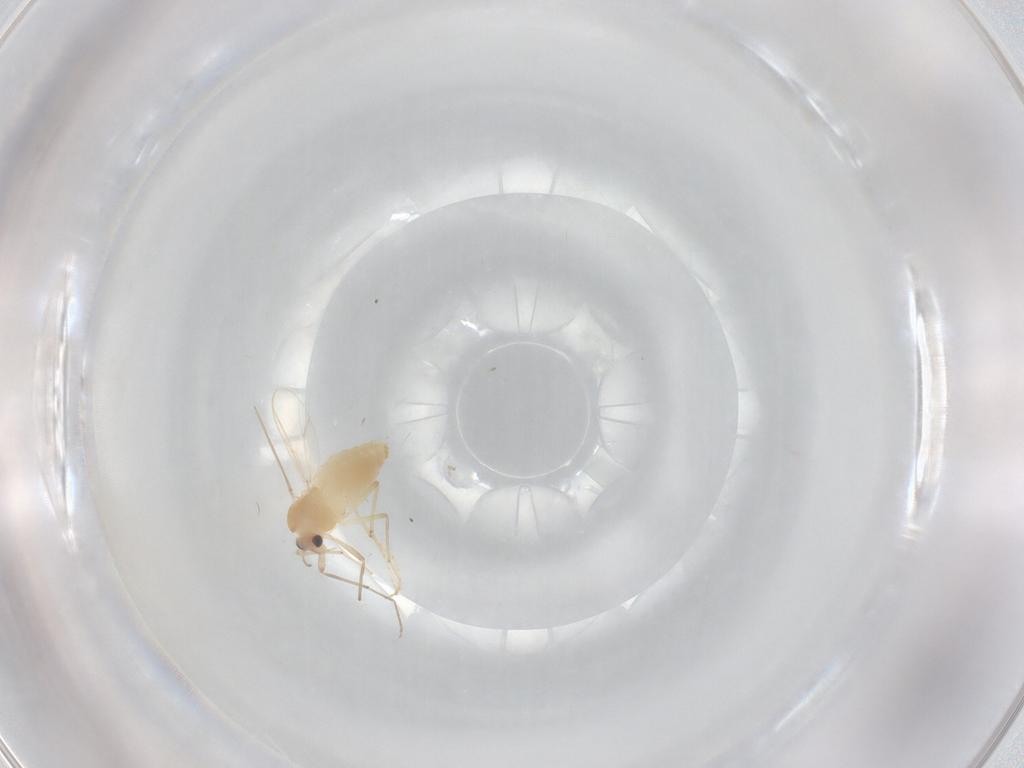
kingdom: Animalia
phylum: Arthropoda
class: Insecta
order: Diptera
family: Chironomidae
